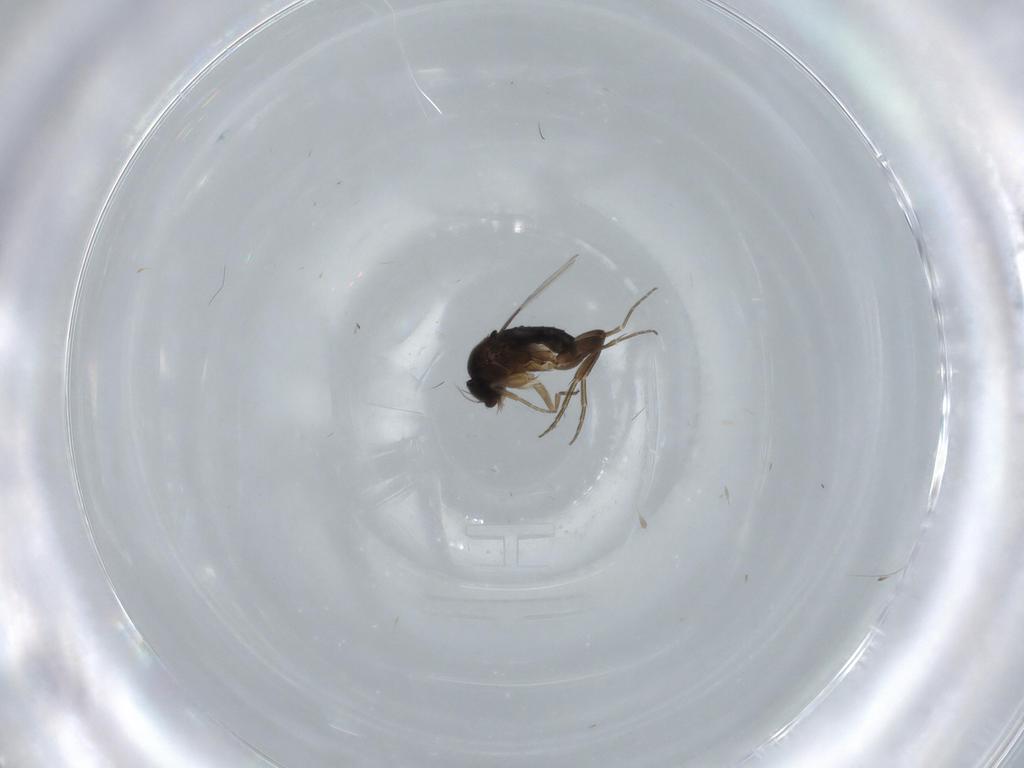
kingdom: Animalia
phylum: Arthropoda
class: Insecta
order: Diptera
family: Phoridae
